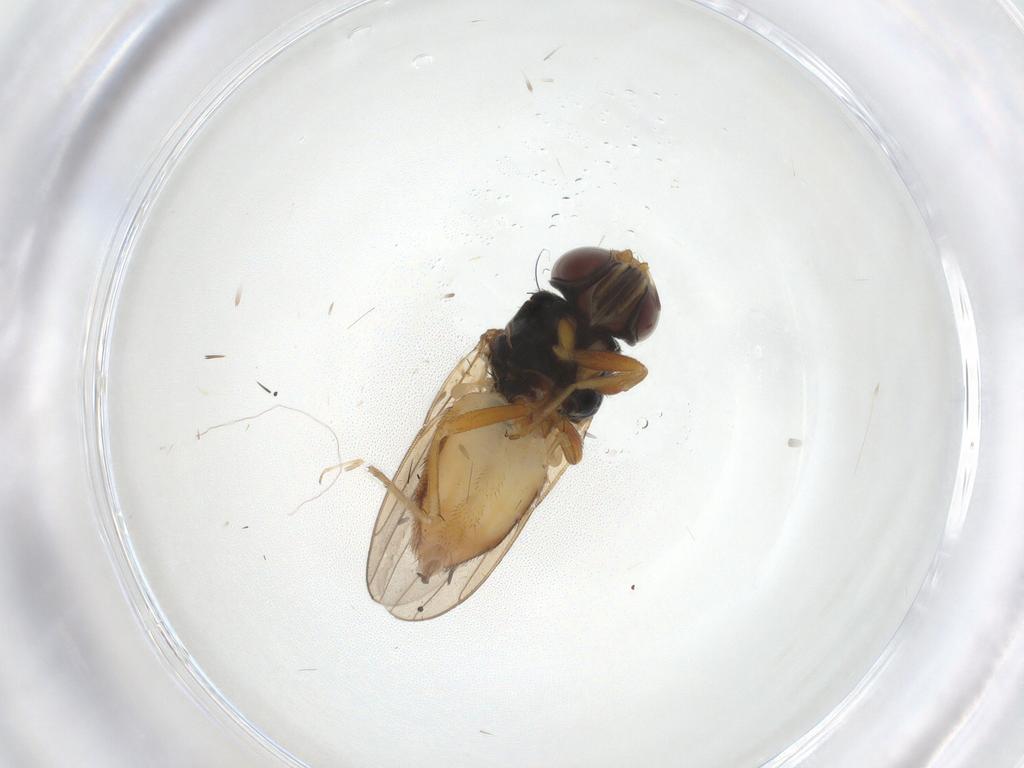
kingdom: Animalia
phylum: Arthropoda
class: Insecta
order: Diptera
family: Chloropidae
